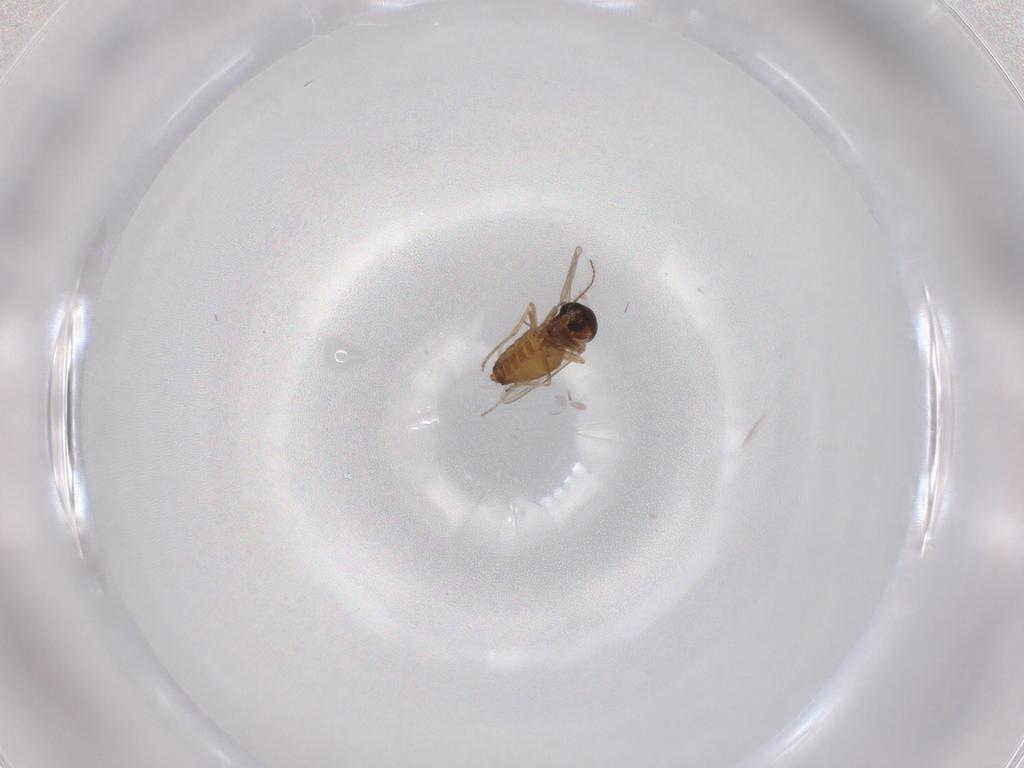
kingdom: Animalia
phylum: Arthropoda
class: Insecta
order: Diptera
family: Ceratopogonidae
